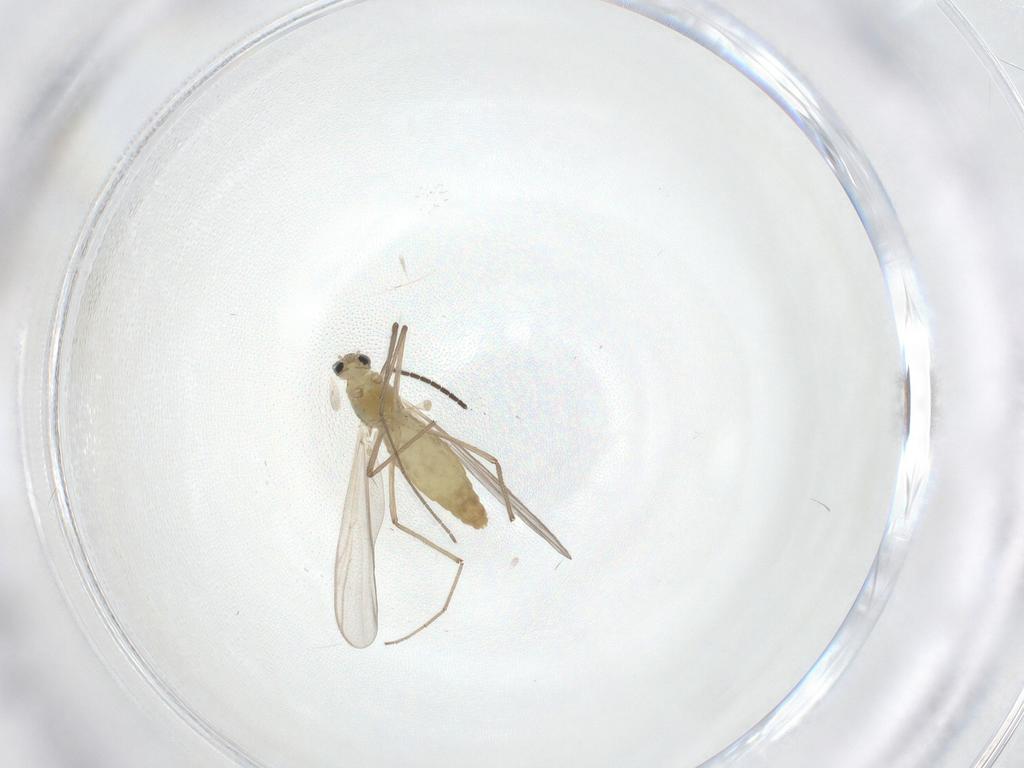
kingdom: Animalia
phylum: Arthropoda
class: Insecta
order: Diptera
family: Chironomidae
